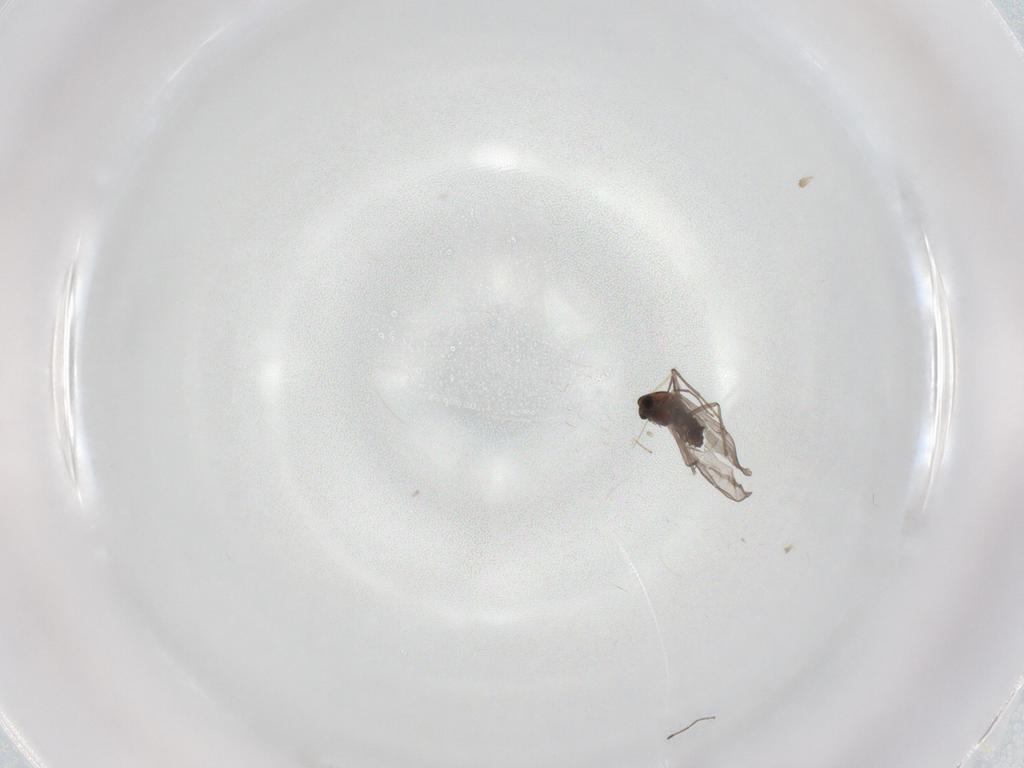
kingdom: Animalia
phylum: Arthropoda
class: Insecta
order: Diptera
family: Chironomidae
